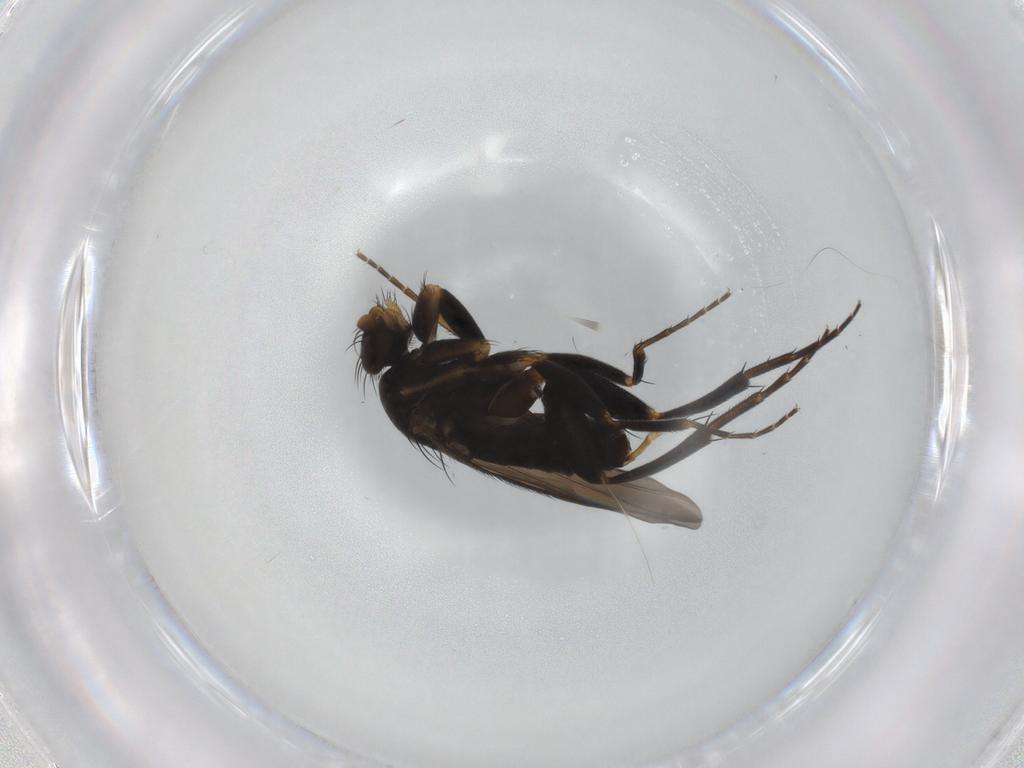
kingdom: Animalia
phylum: Arthropoda
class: Insecta
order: Diptera
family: Phoridae
